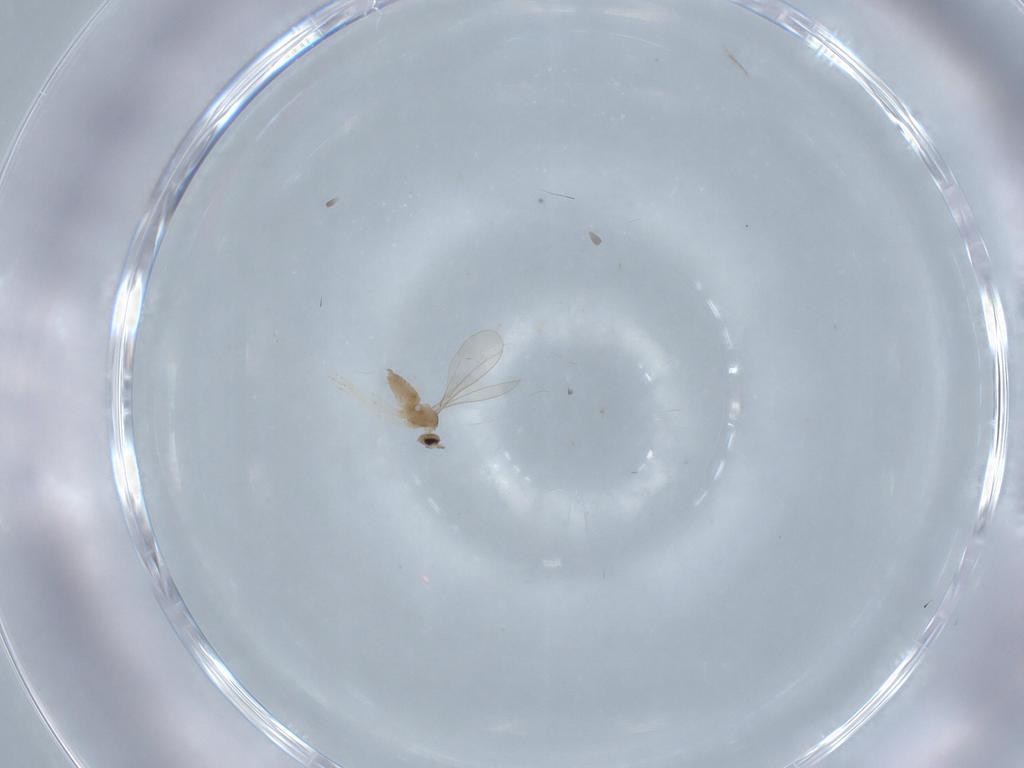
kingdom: Animalia
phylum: Arthropoda
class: Insecta
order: Diptera
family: Cecidomyiidae
